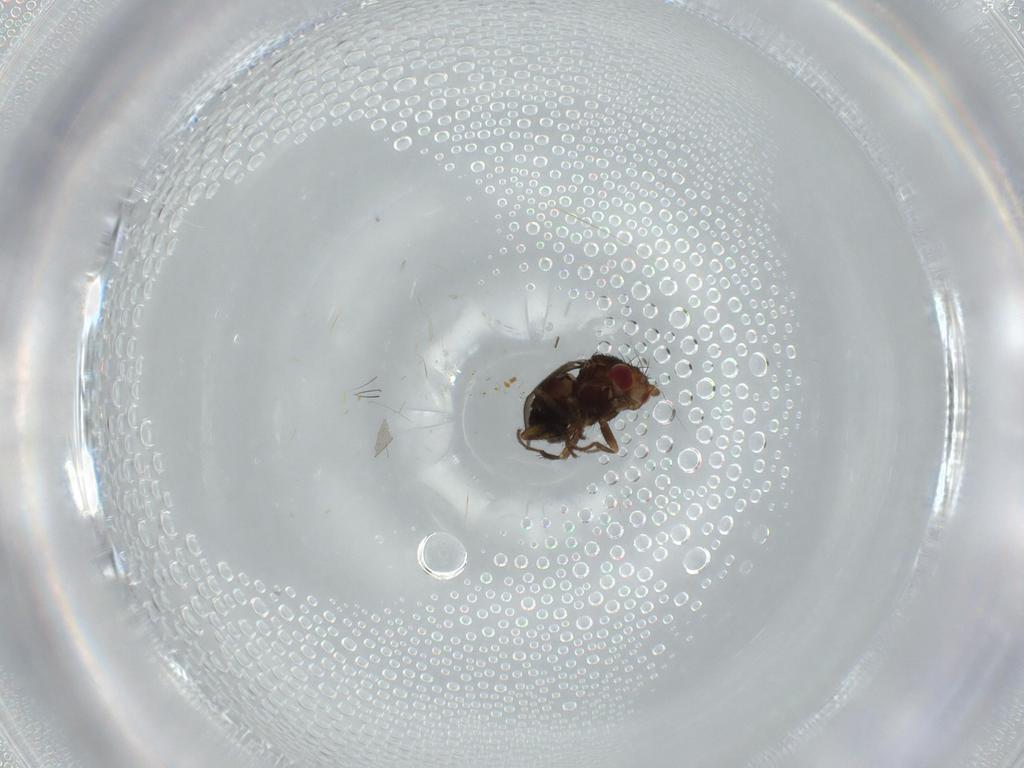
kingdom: Animalia
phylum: Arthropoda
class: Insecta
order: Diptera
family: Sphaeroceridae
